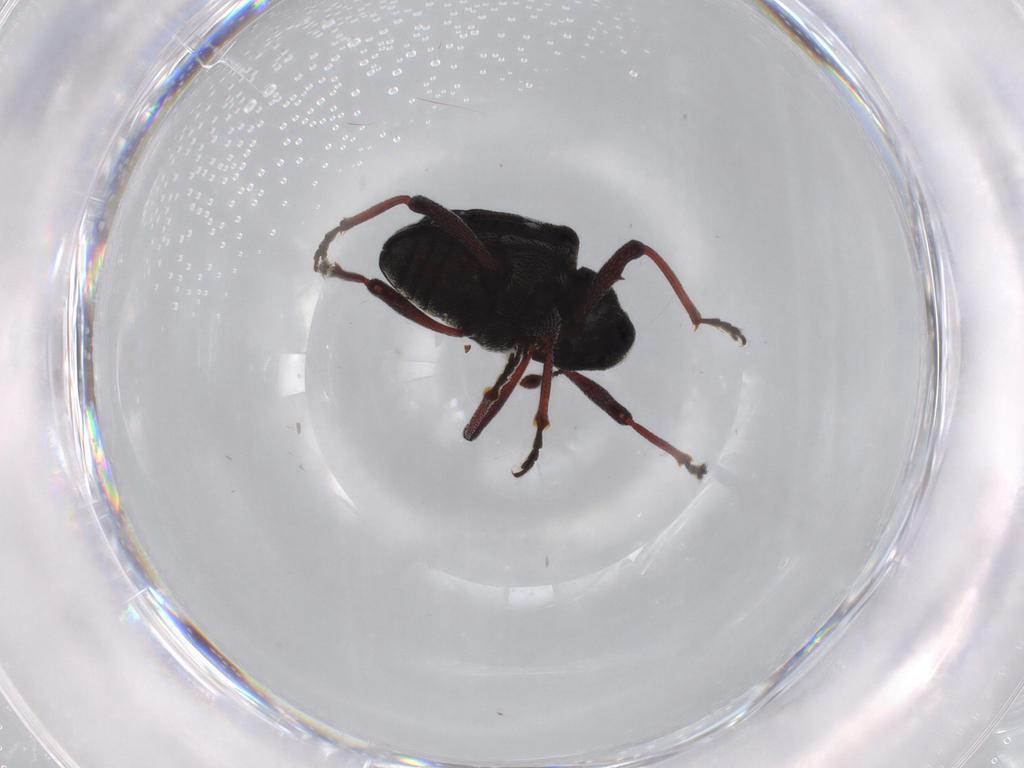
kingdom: Animalia
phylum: Arthropoda
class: Insecta
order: Coleoptera
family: Curculionidae
